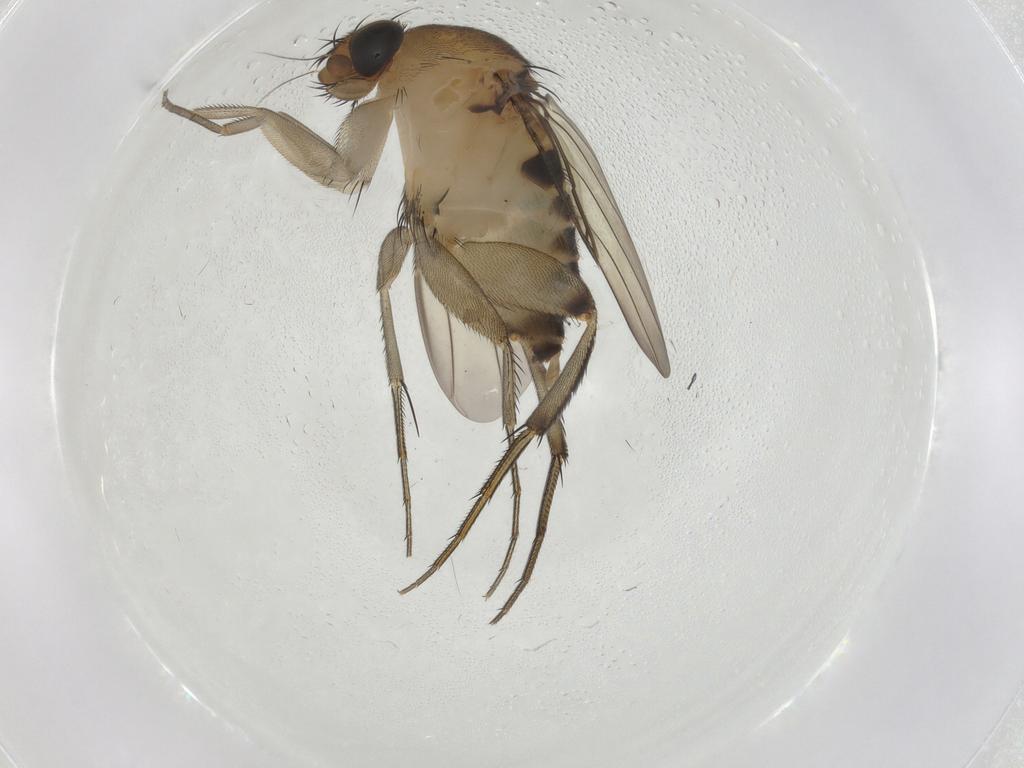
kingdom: Animalia
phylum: Arthropoda
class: Insecta
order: Diptera
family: Phoridae
